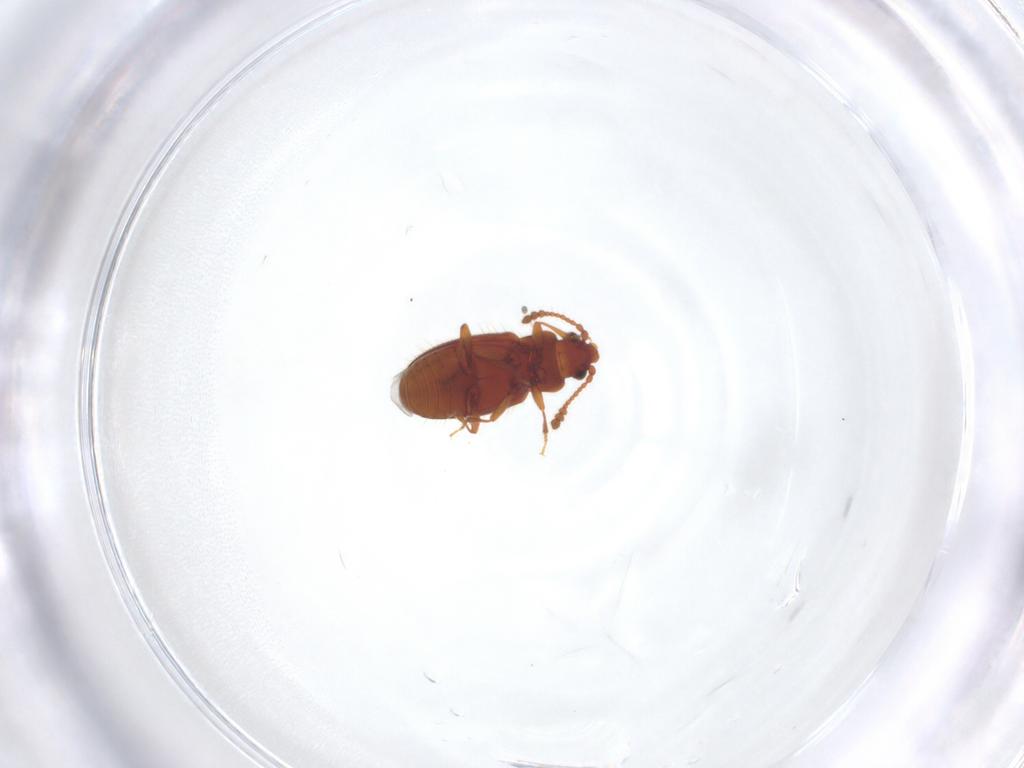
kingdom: Animalia
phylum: Arthropoda
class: Insecta
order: Coleoptera
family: Cryptophagidae
